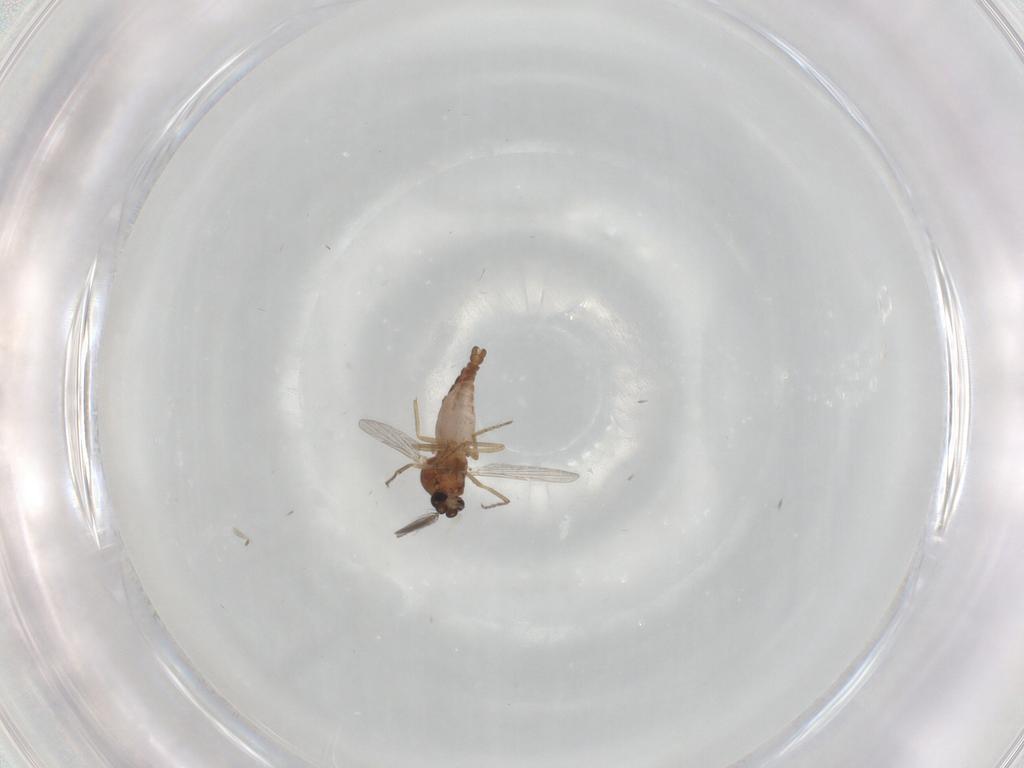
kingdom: Animalia
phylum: Arthropoda
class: Insecta
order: Diptera
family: Ceratopogonidae
